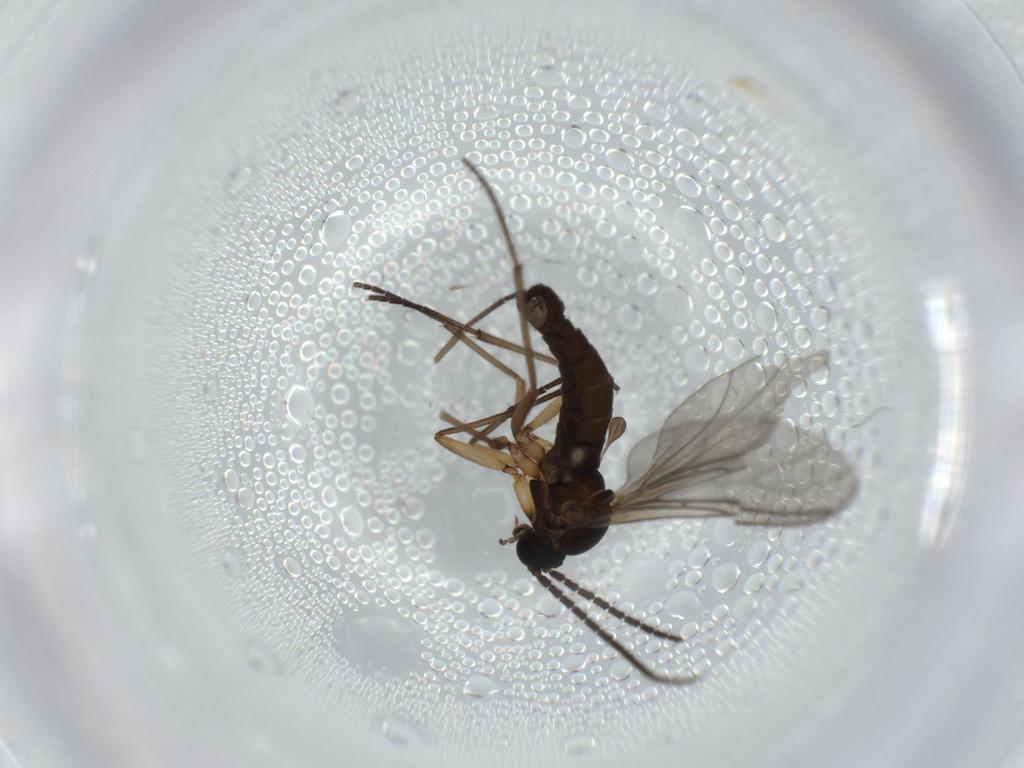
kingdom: Animalia
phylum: Arthropoda
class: Insecta
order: Diptera
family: Sciaridae
